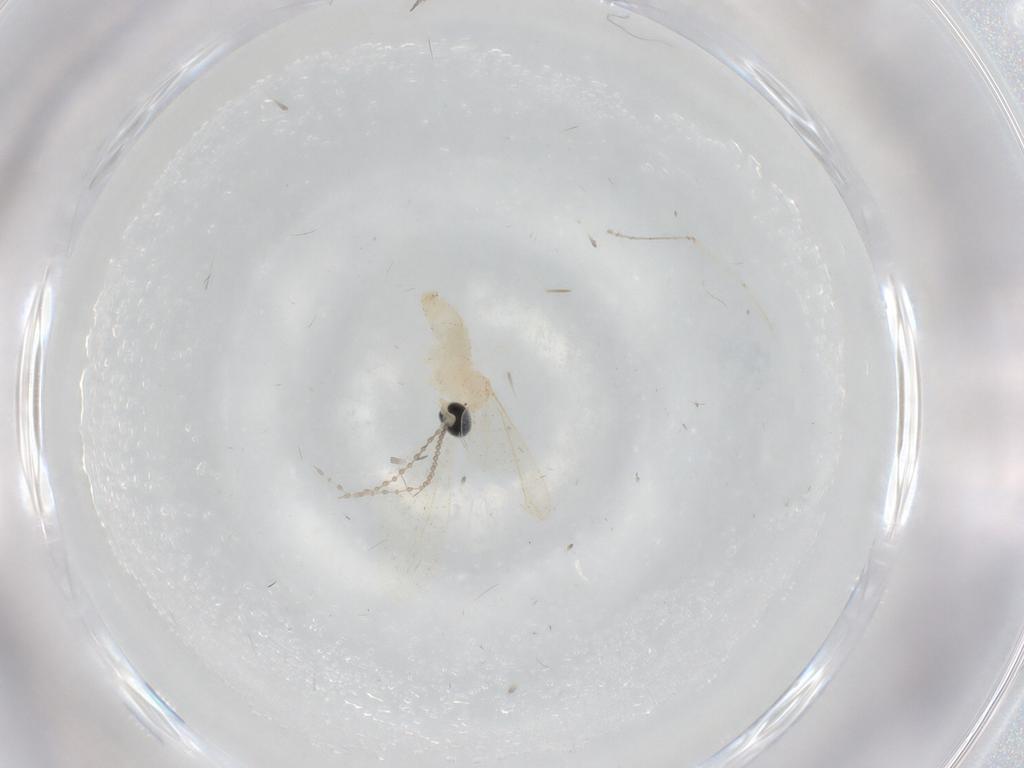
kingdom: Animalia
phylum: Arthropoda
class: Insecta
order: Diptera
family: Cecidomyiidae
